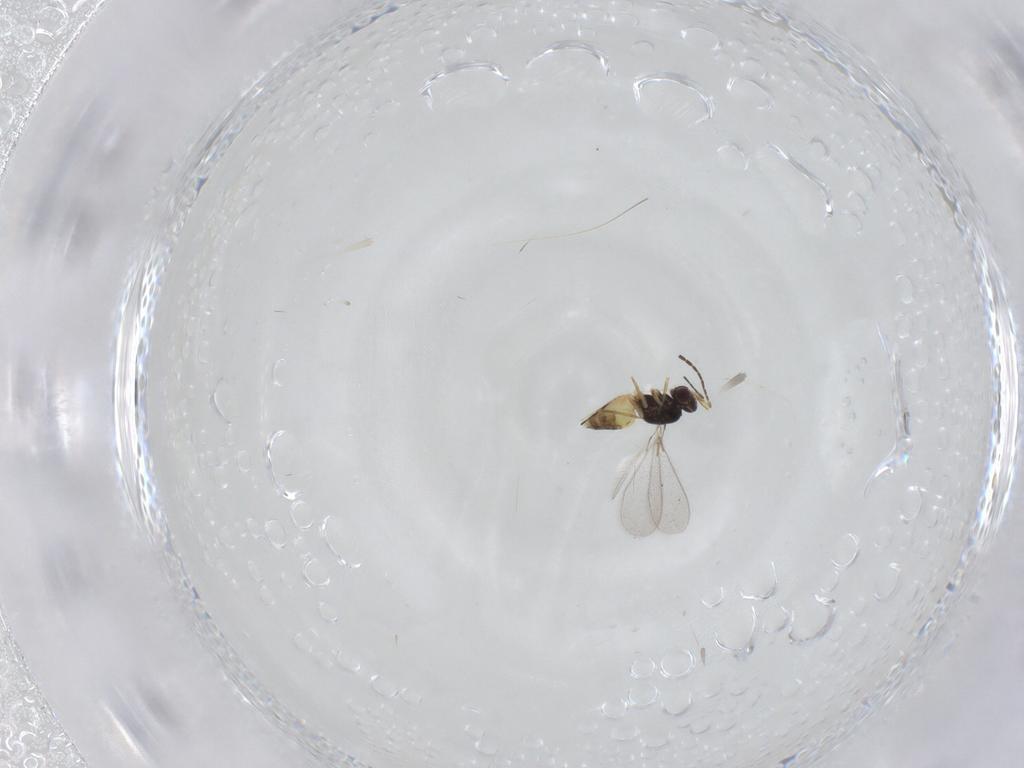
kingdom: Animalia
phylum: Arthropoda
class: Insecta
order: Hymenoptera
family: Mymaridae
